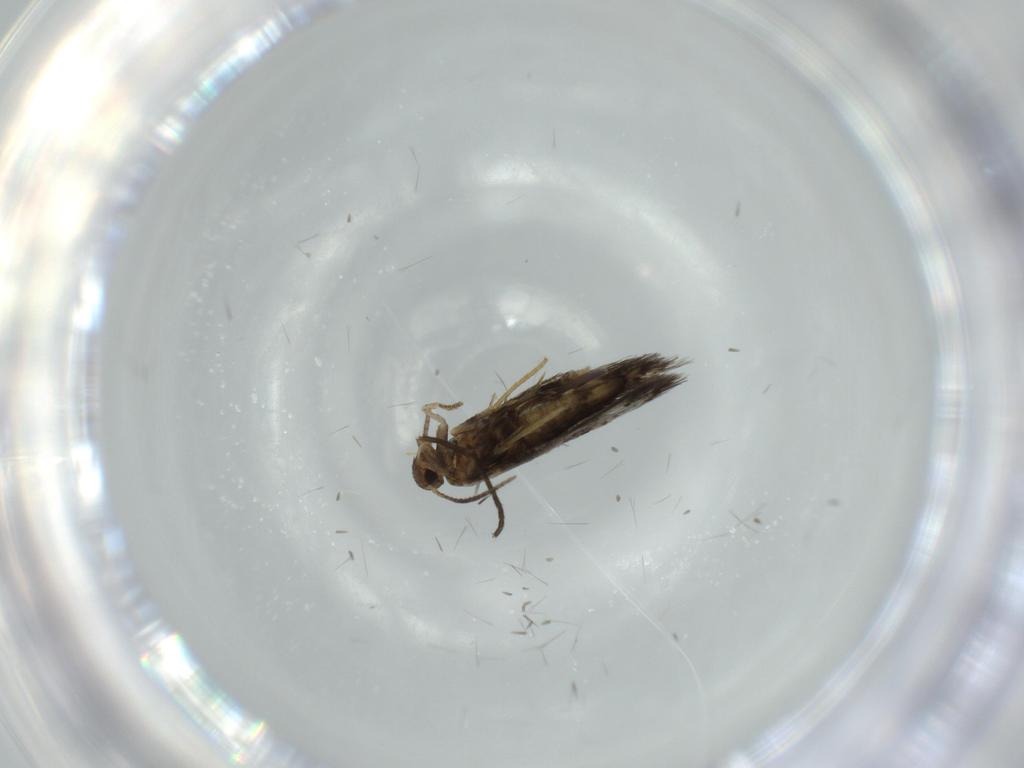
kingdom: Animalia
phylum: Arthropoda
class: Insecta
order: Lepidoptera
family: Heliozelidae
